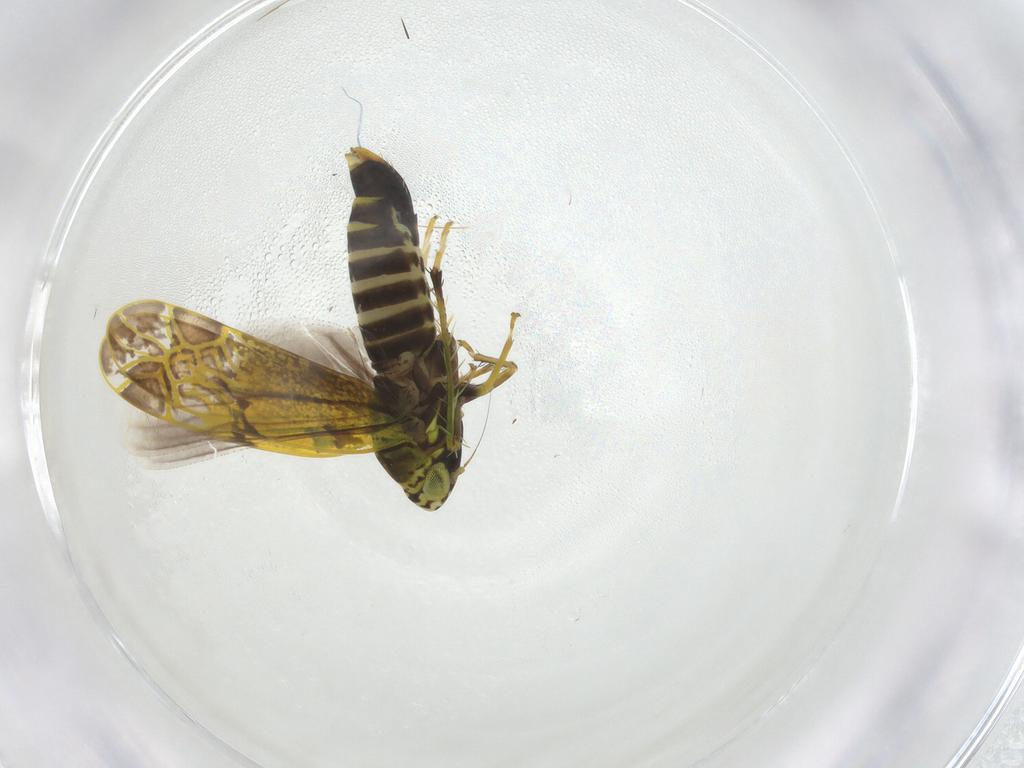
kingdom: Animalia
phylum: Arthropoda
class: Insecta
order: Hemiptera
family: Cicadellidae
